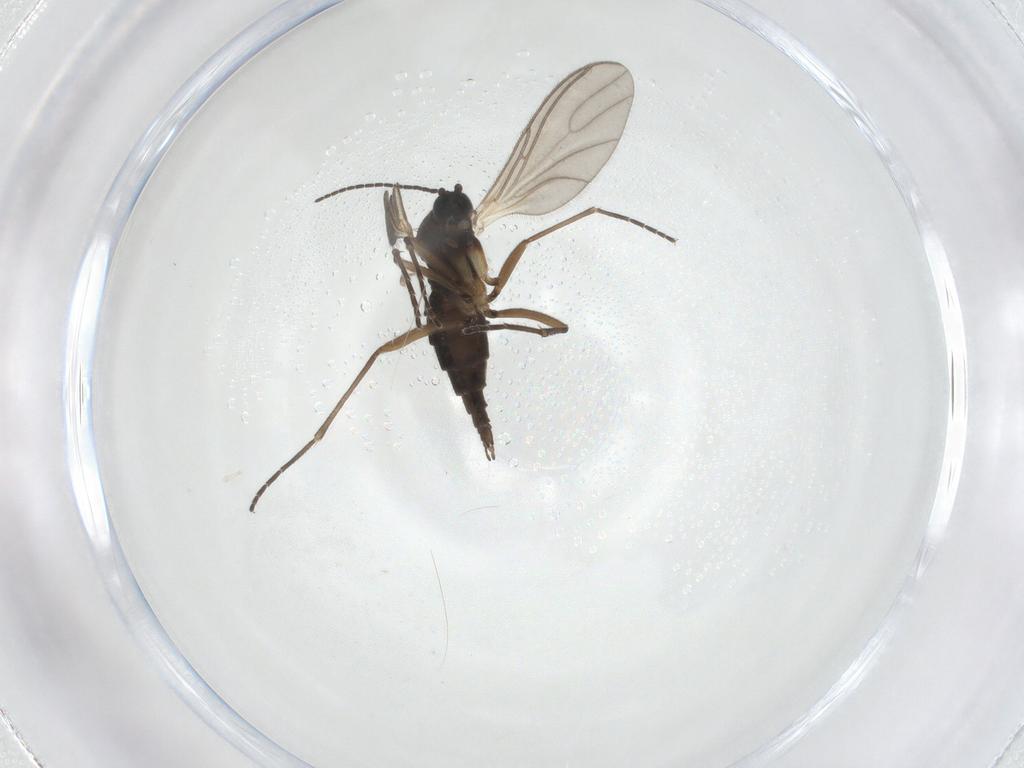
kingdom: Animalia
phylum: Arthropoda
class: Insecta
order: Diptera
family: Sciaridae
